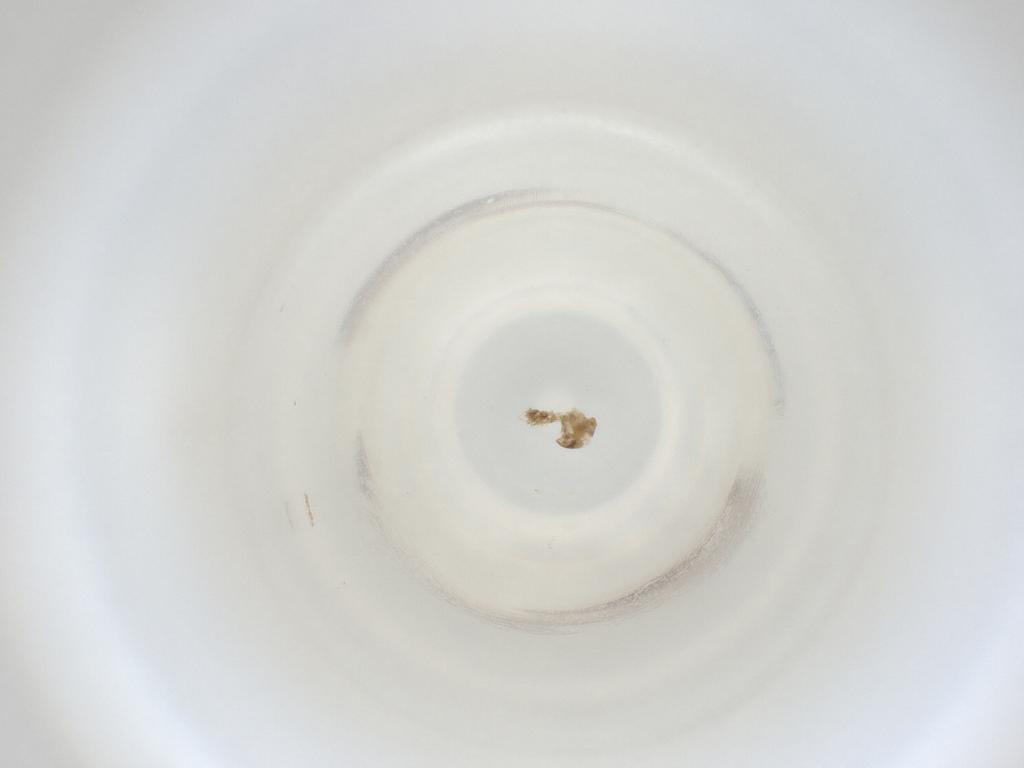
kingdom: Animalia
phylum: Arthropoda
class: Insecta
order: Diptera
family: Cecidomyiidae
